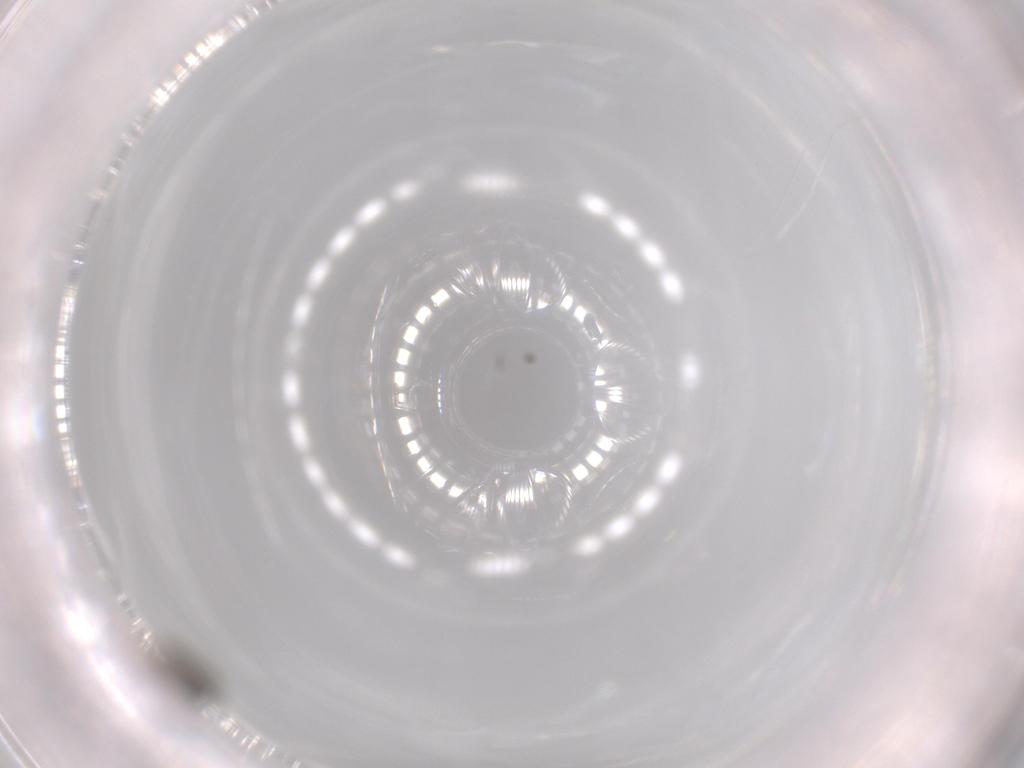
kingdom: Animalia
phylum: Arthropoda
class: Insecta
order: Hymenoptera
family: Scelionidae
